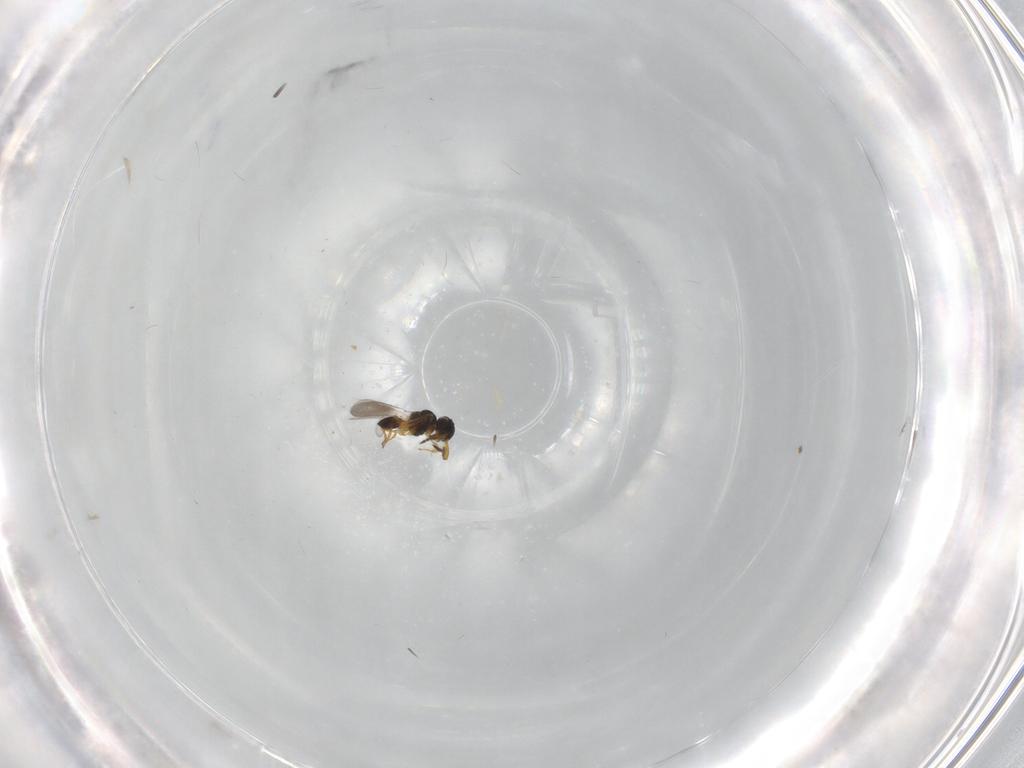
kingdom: Animalia
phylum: Arthropoda
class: Insecta
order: Hymenoptera
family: Platygastridae
